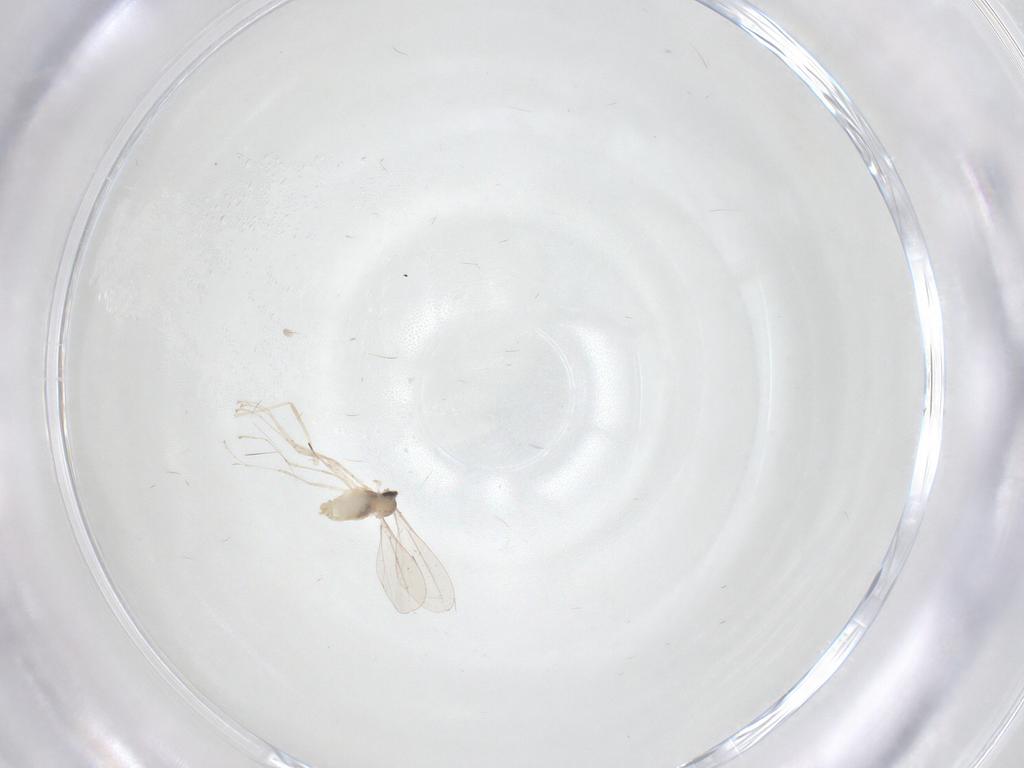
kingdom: Animalia
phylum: Arthropoda
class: Insecta
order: Diptera
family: Cecidomyiidae
